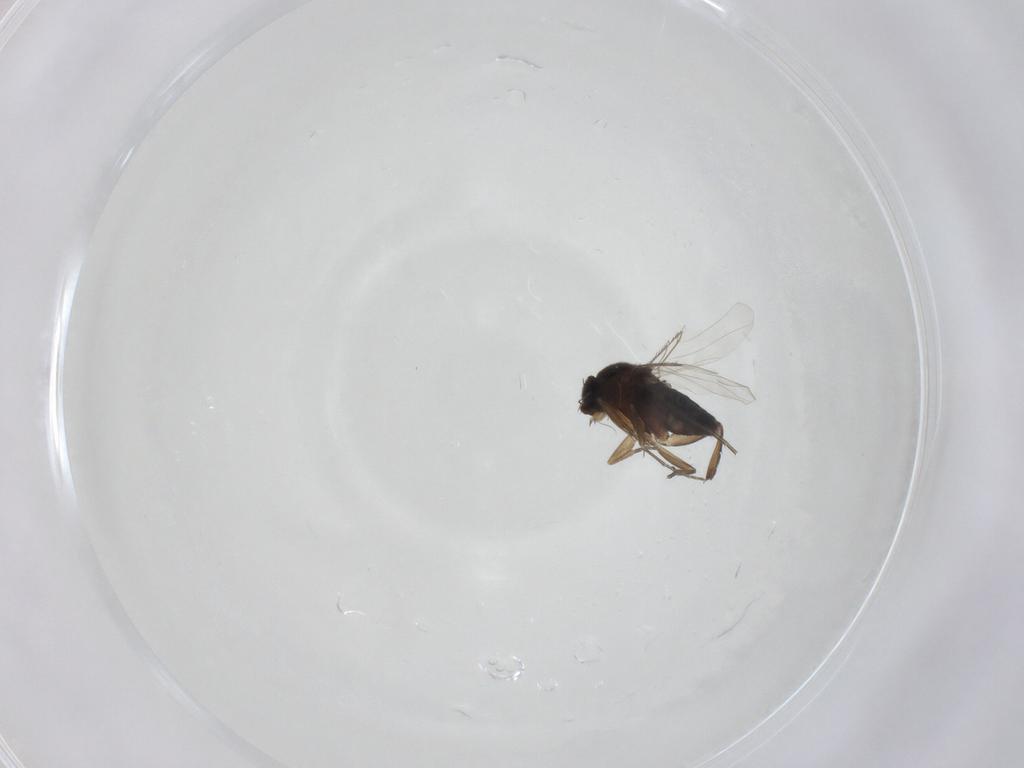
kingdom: Animalia
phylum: Arthropoda
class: Insecta
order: Diptera
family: Phoridae
